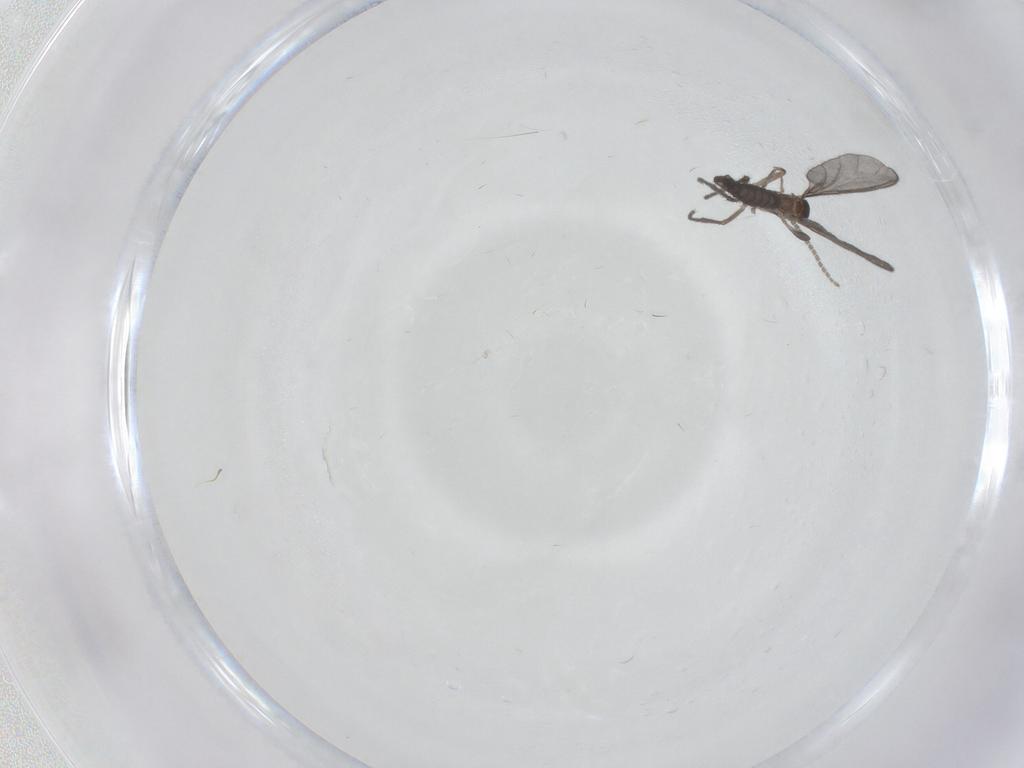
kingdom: Animalia
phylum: Arthropoda
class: Insecta
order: Diptera
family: Sciaridae
